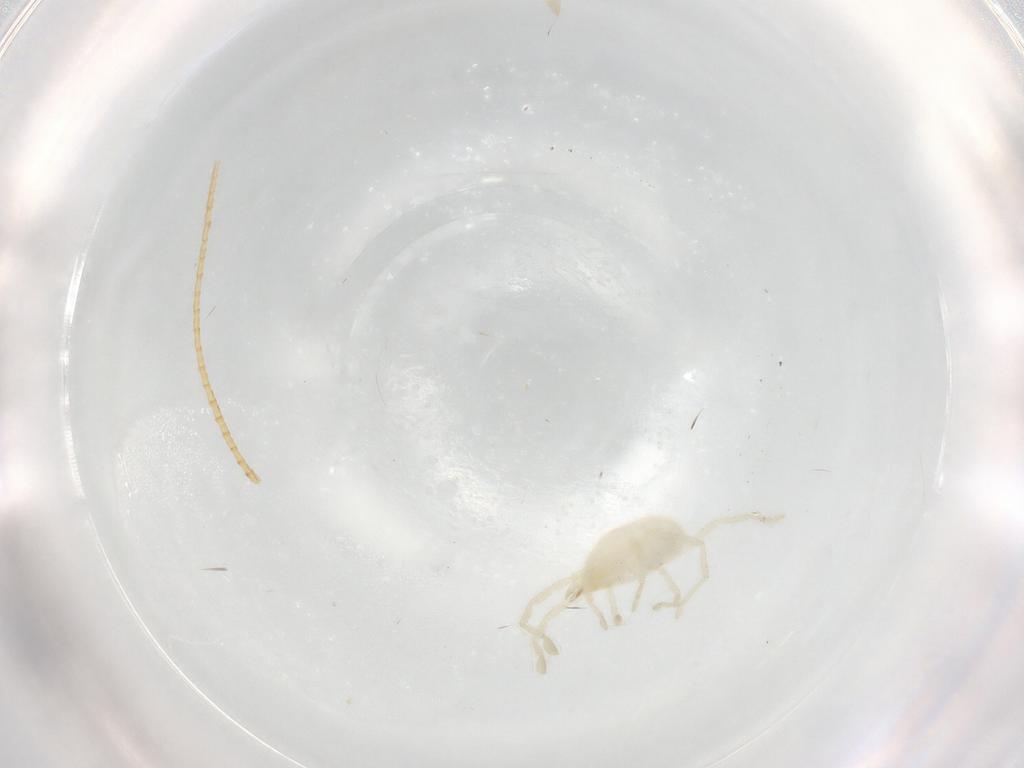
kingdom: Animalia
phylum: Arthropoda
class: Arachnida
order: Trombidiformes
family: Erythraeidae
